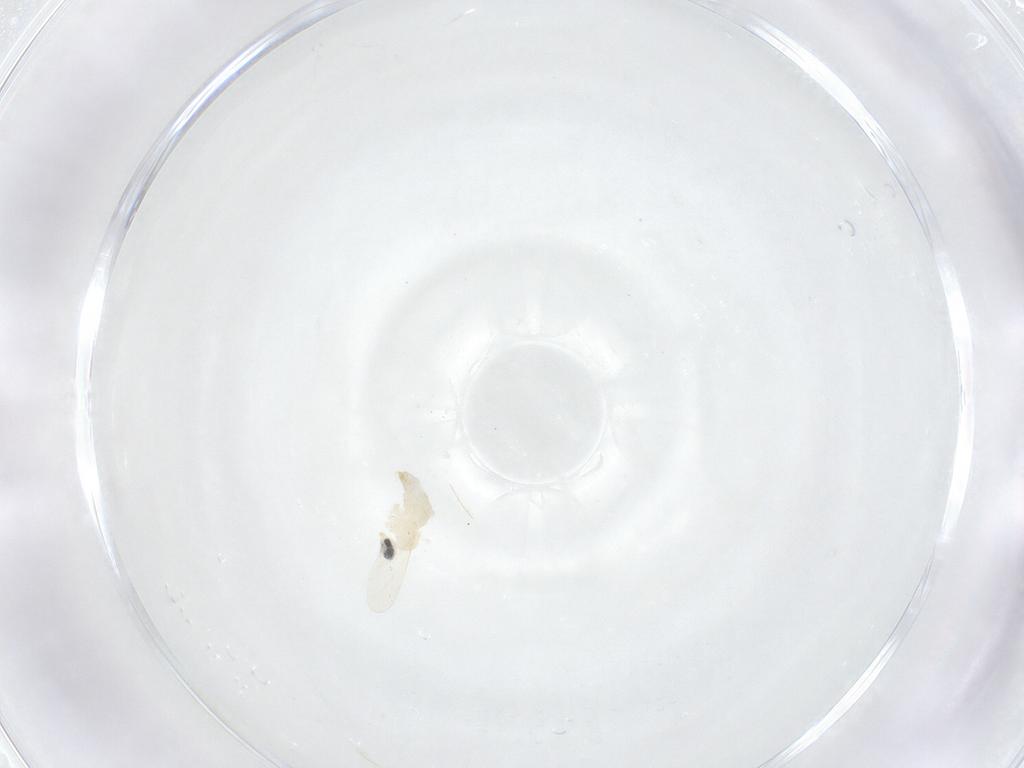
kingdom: Animalia
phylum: Arthropoda
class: Insecta
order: Diptera
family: Cecidomyiidae
